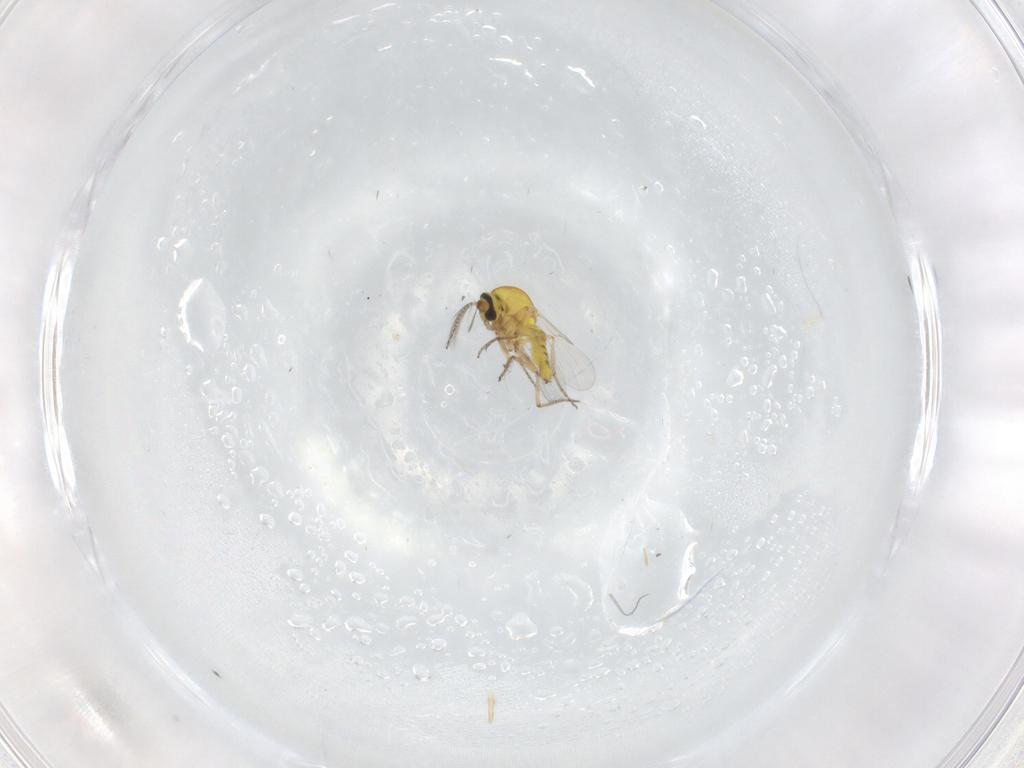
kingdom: Animalia
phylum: Arthropoda
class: Insecta
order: Diptera
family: Ceratopogonidae
